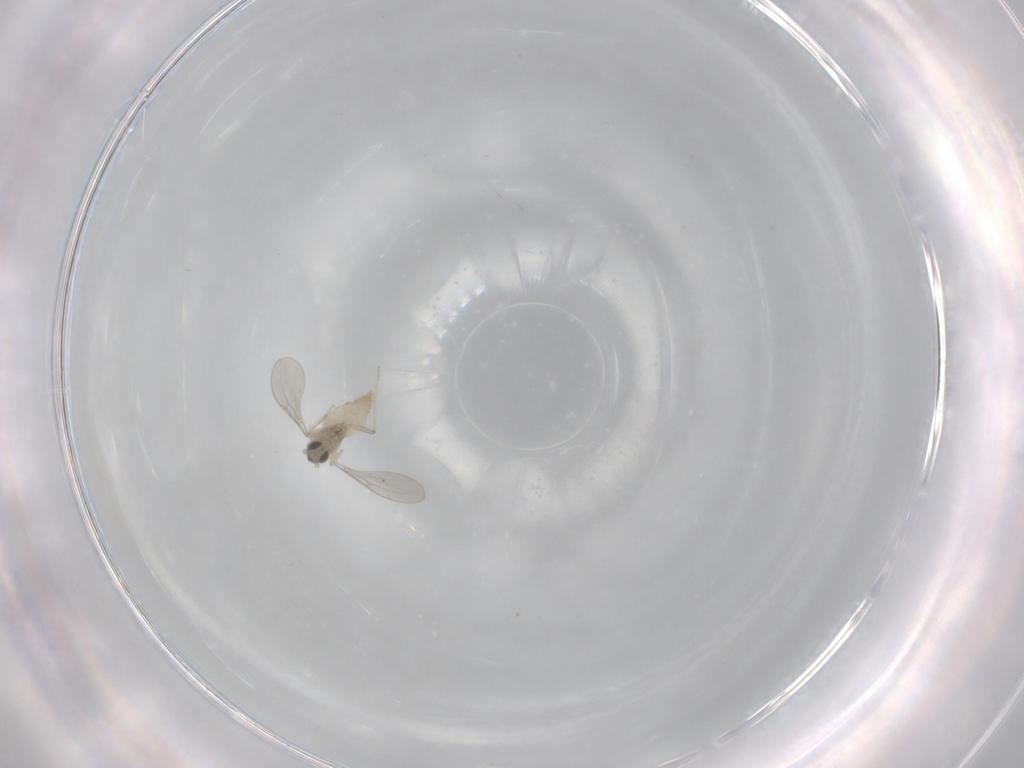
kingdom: Animalia
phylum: Arthropoda
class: Insecta
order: Diptera
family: Cecidomyiidae
